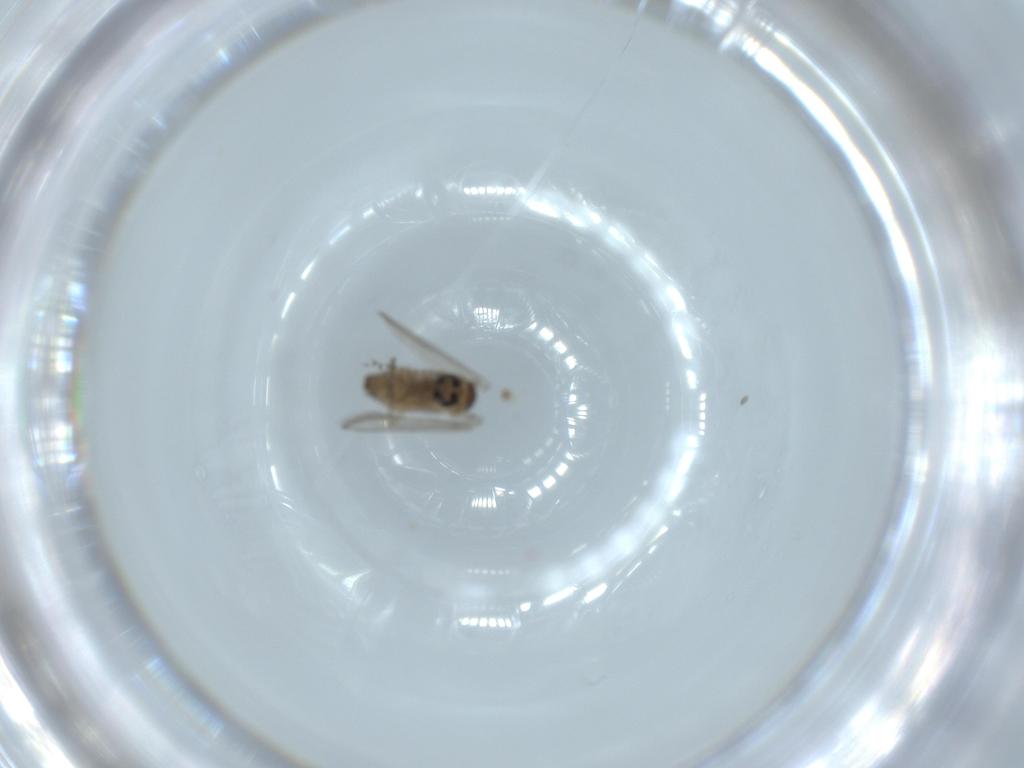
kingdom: Animalia
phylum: Arthropoda
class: Insecta
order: Diptera
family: Psychodidae
